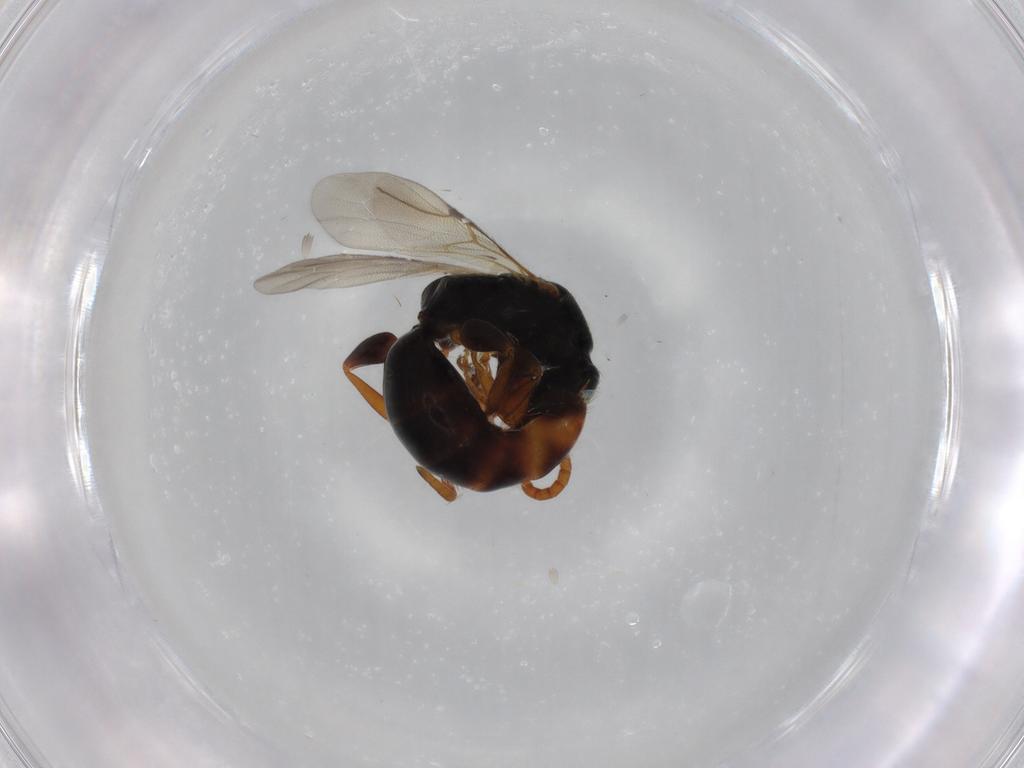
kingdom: Animalia
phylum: Arthropoda
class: Insecta
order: Hymenoptera
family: Bethylidae
